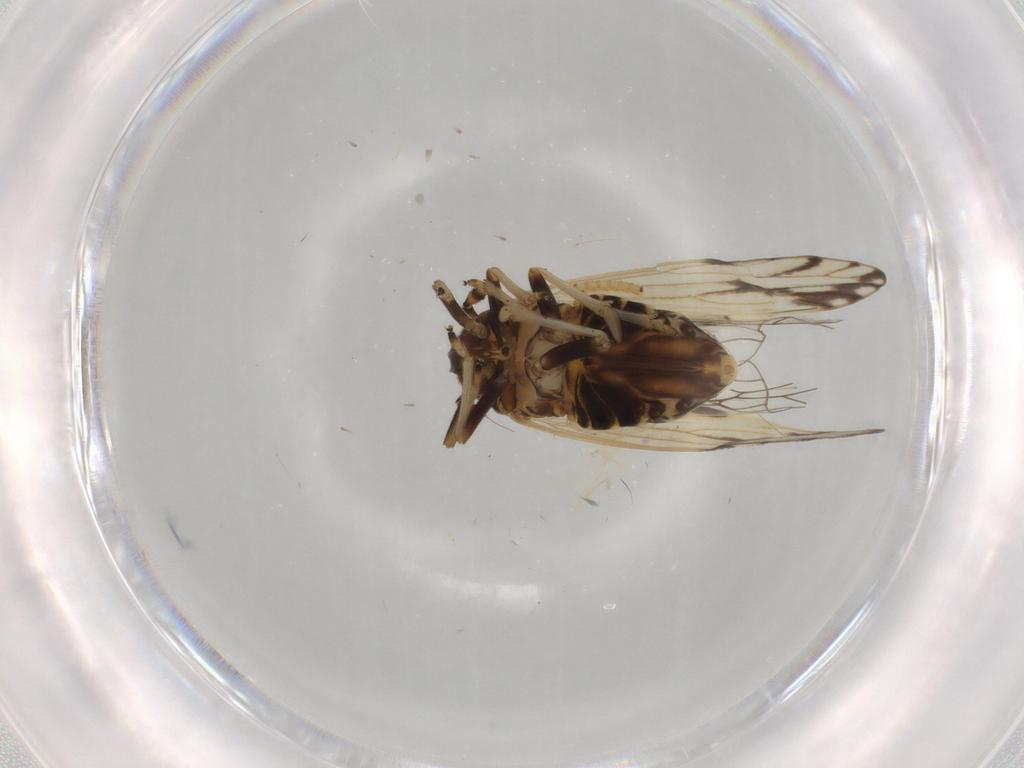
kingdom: Animalia
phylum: Arthropoda
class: Insecta
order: Hemiptera
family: Delphacidae
